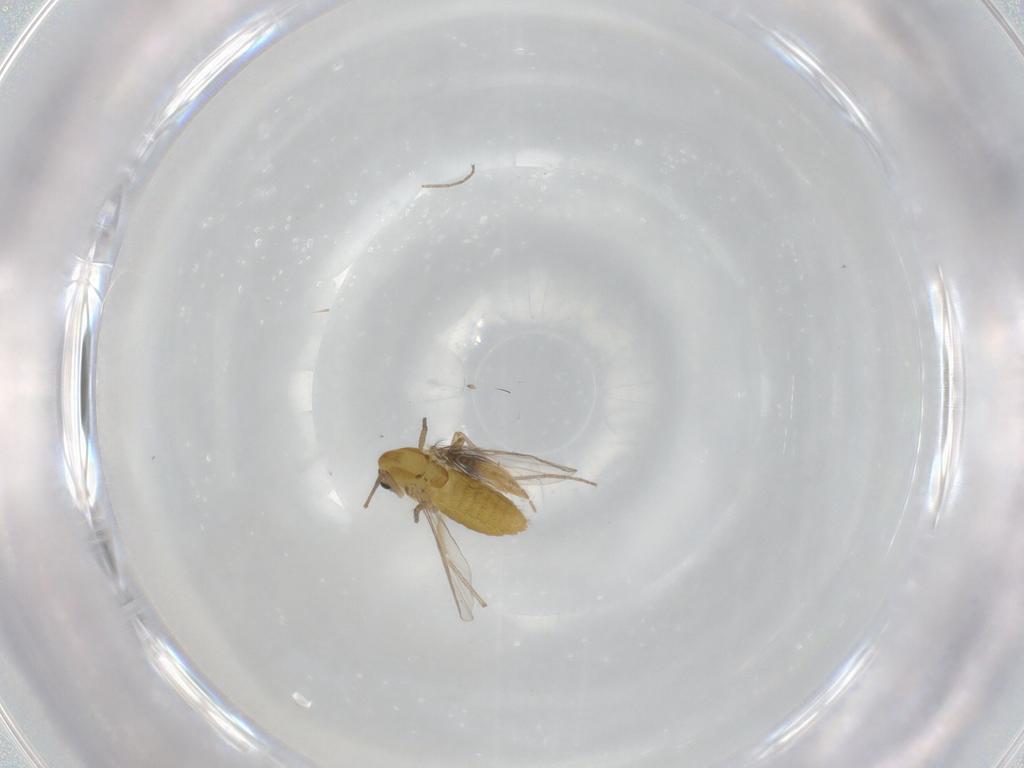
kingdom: Animalia
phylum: Arthropoda
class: Insecta
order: Diptera
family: Chironomidae
